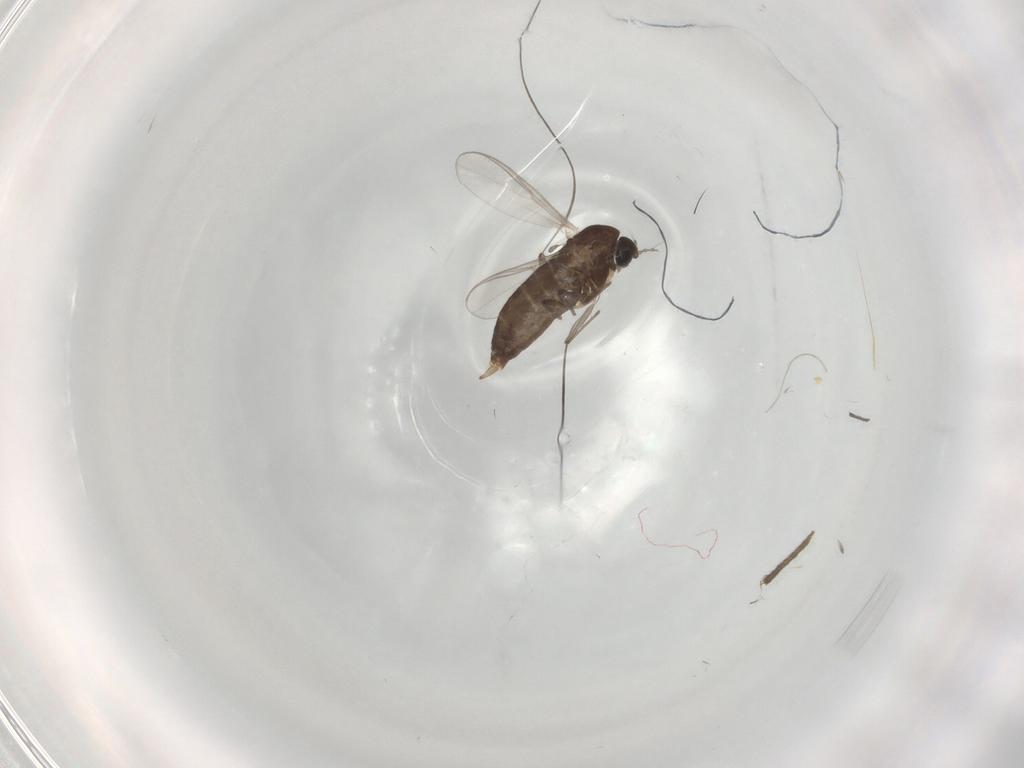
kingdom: Animalia
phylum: Arthropoda
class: Insecta
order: Diptera
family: Chironomidae
